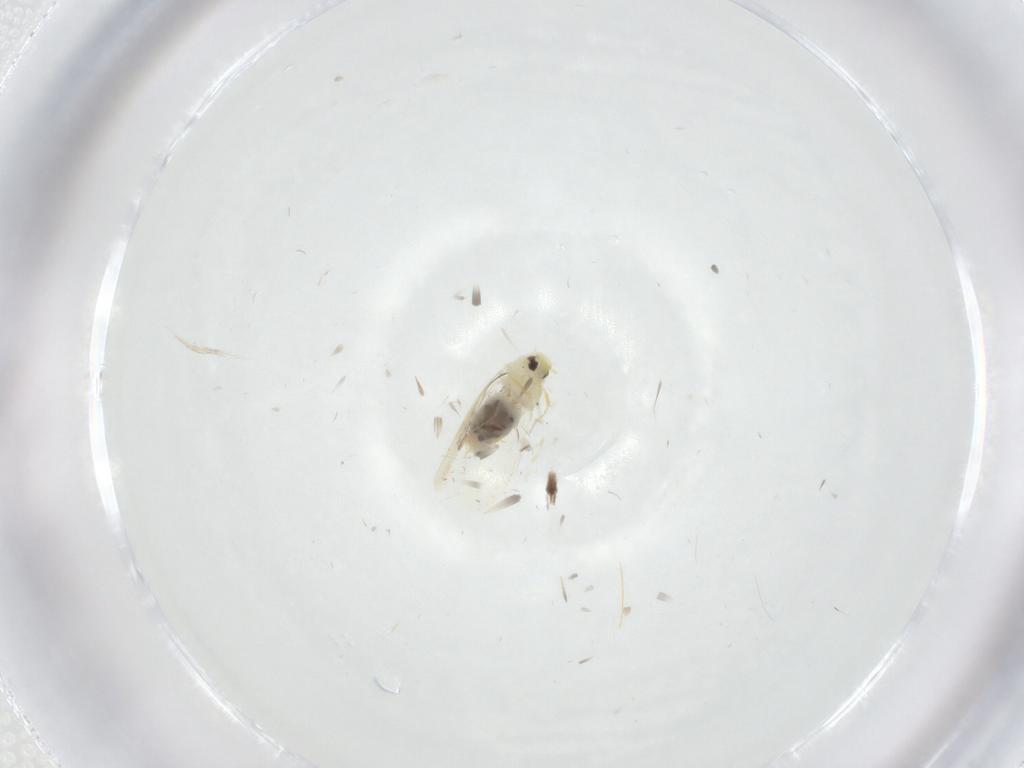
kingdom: Animalia
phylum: Arthropoda
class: Insecta
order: Hemiptera
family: Aleyrodidae
